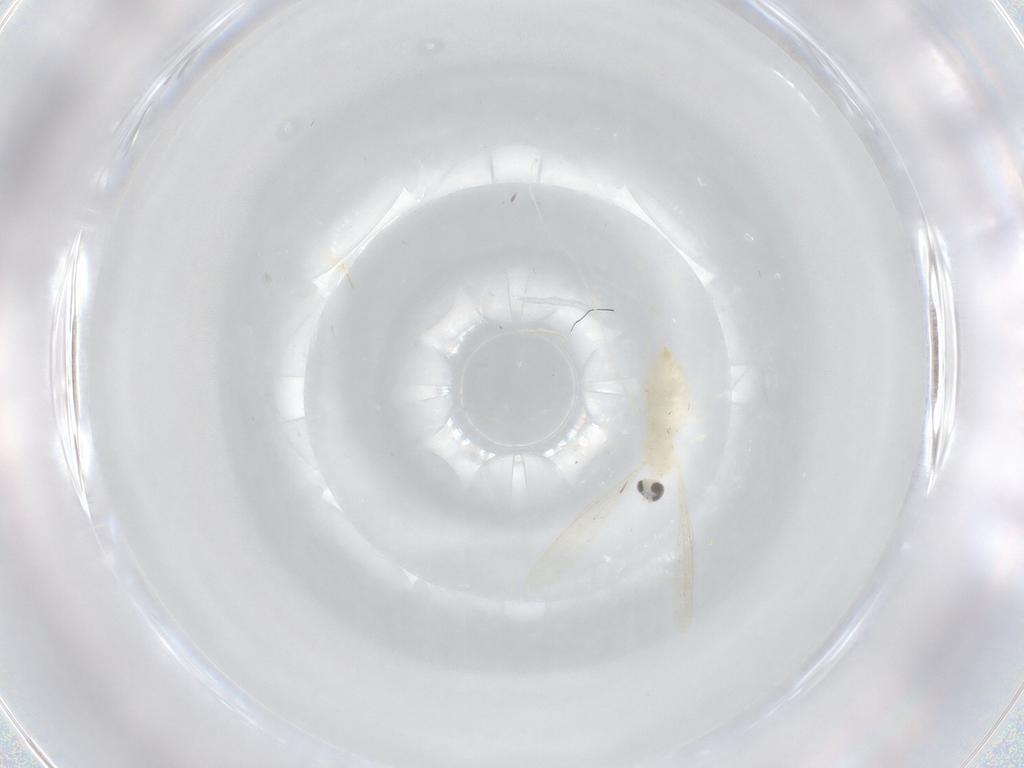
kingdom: Animalia
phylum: Arthropoda
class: Insecta
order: Diptera
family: Cecidomyiidae
